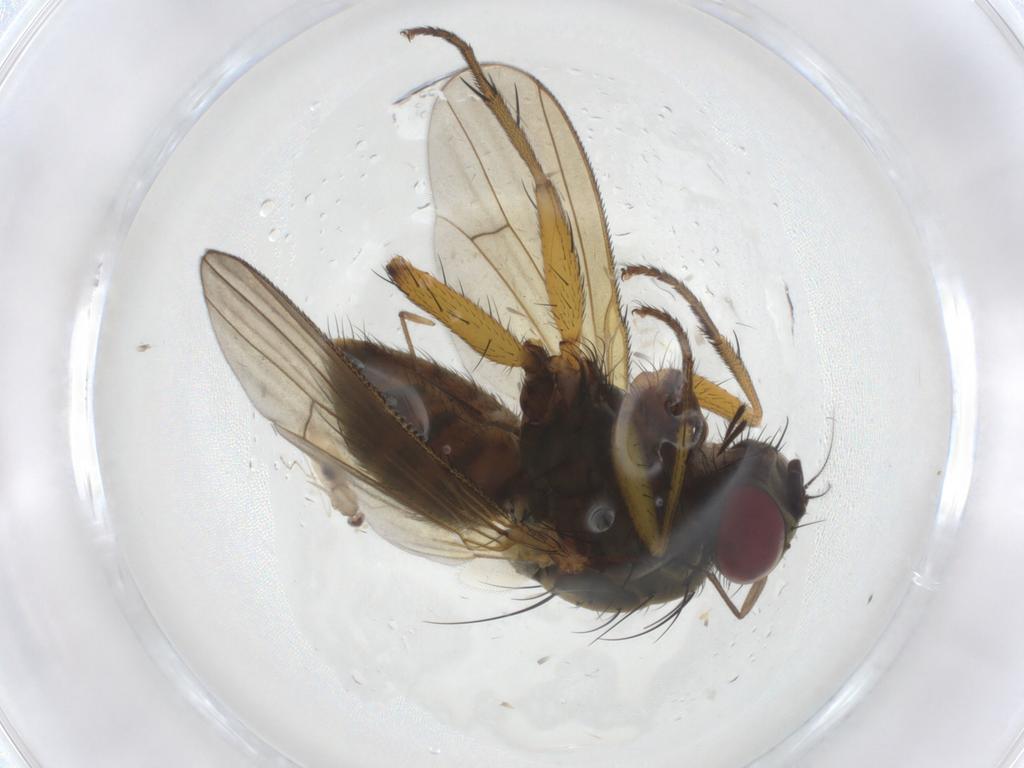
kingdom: Animalia
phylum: Arthropoda
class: Insecta
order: Diptera
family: Muscidae
